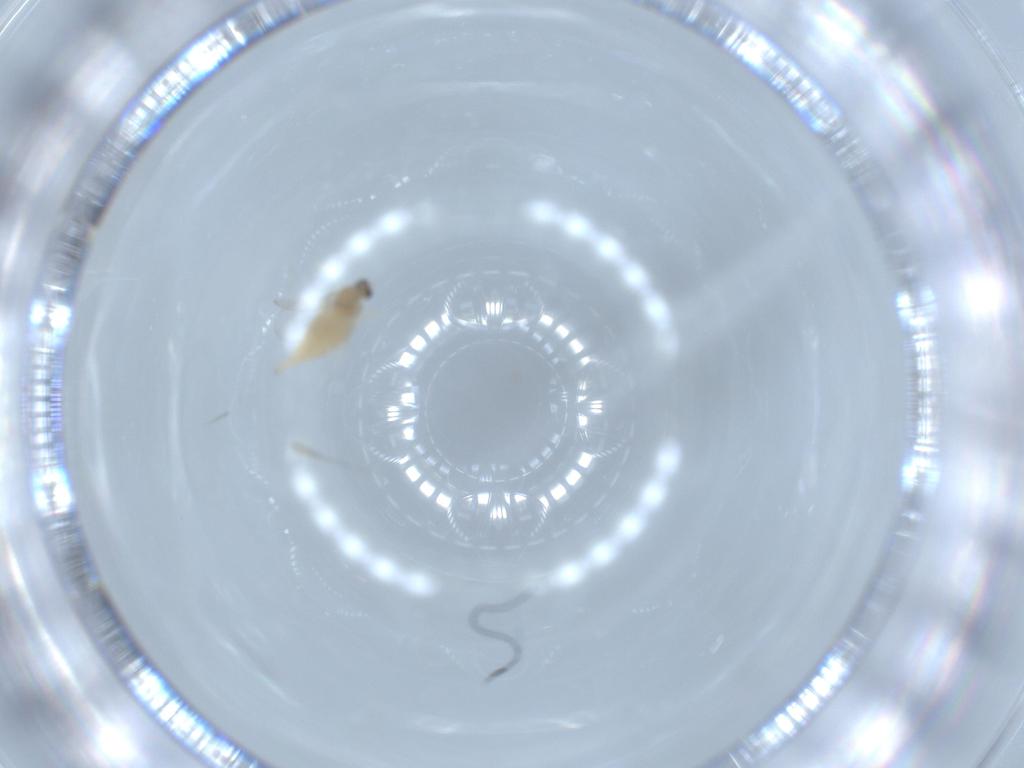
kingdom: Animalia
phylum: Arthropoda
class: Insecta
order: Diptera
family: Cecidomyiidae
